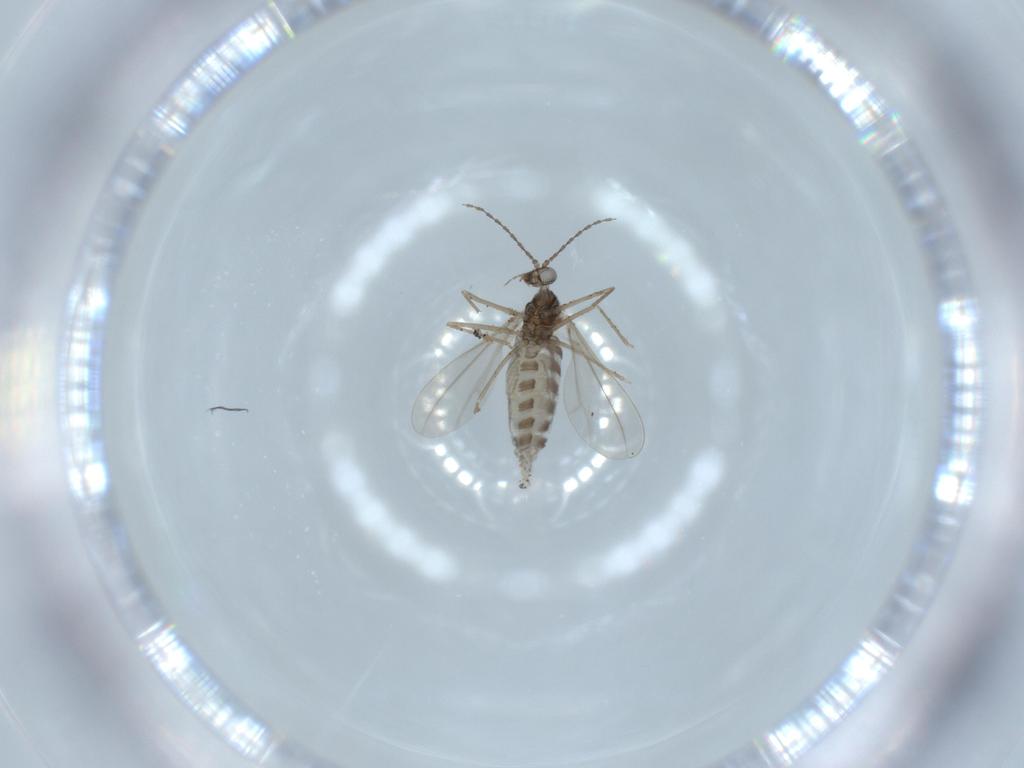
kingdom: Animalia
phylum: Arthropoda
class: Insecta
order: Diptera
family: Cecidomyiidae
